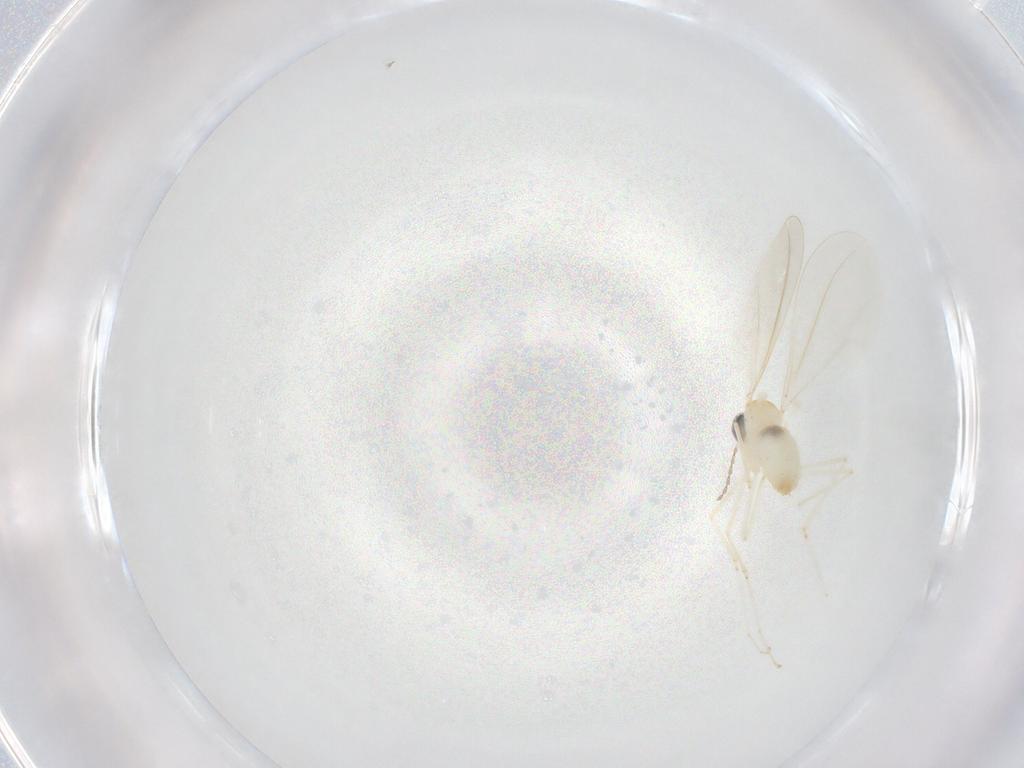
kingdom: Animalia
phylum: Arthropoda
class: Insecta
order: Diptera
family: Cecidomyiidae
